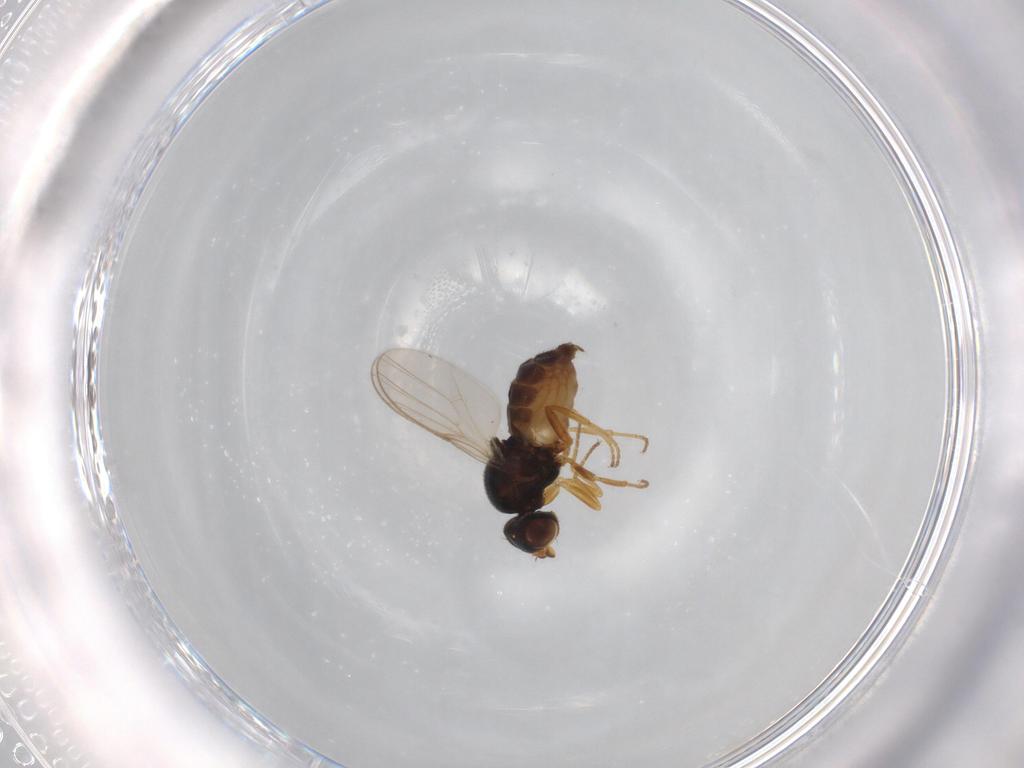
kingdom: Animalia
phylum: Arthropoda
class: Insecta
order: Diptera
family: Chloropidae
